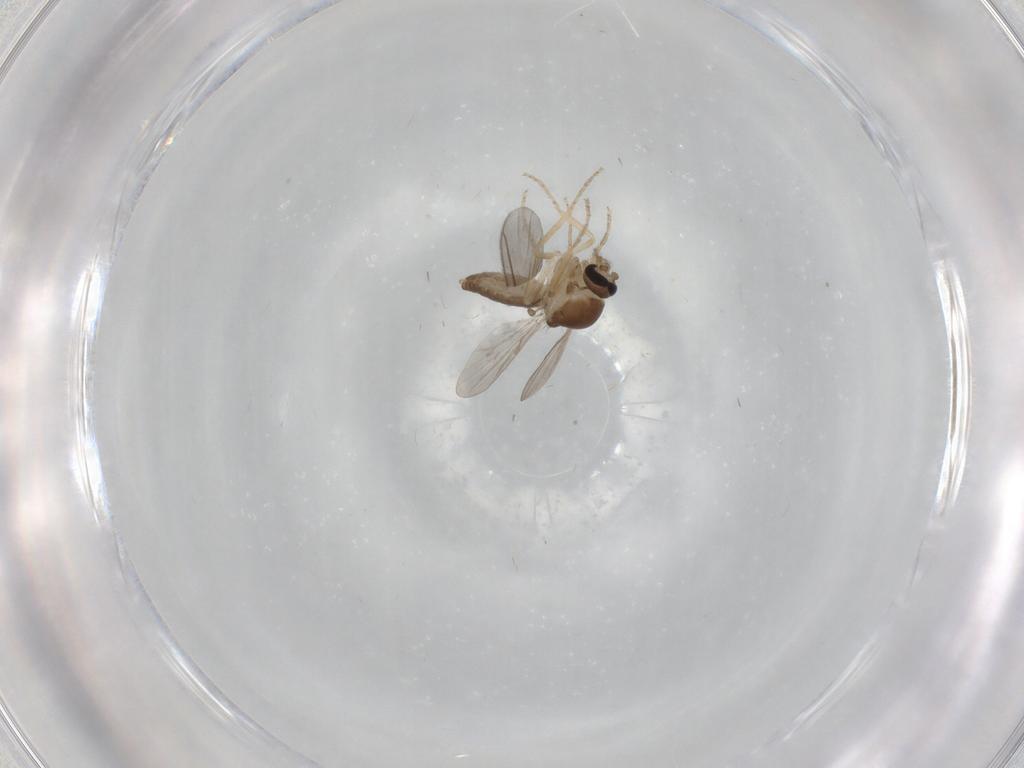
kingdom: Animalia
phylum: Arthropoda
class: Insecta
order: Diptera
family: Ceratopogonidae
